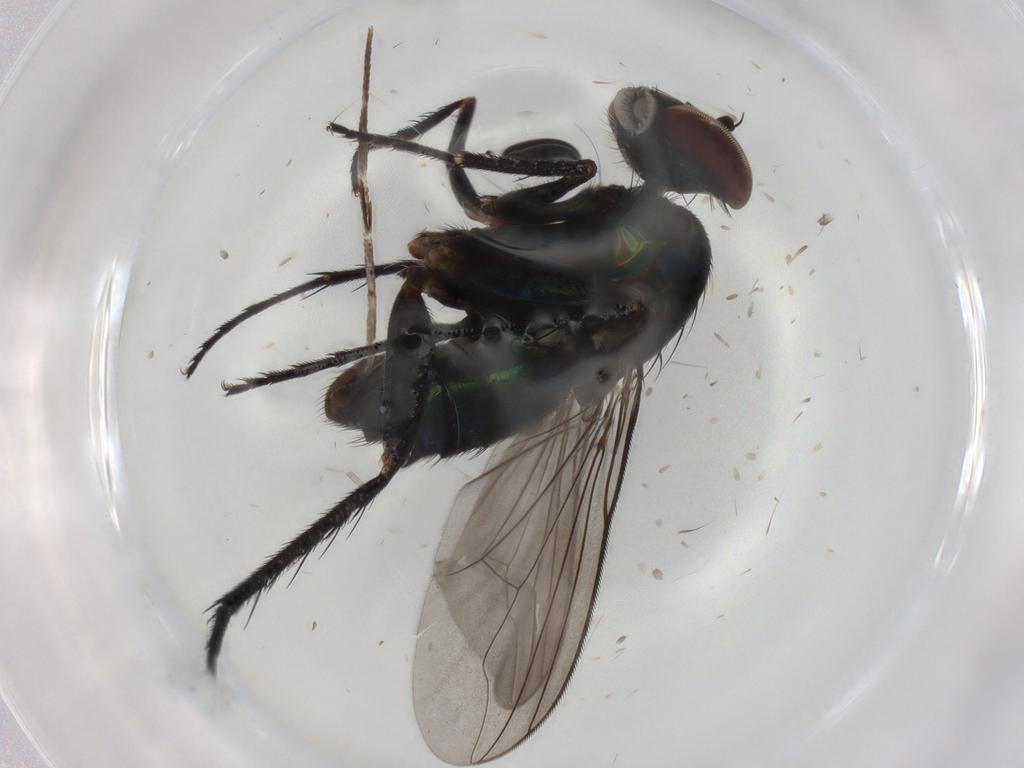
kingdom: Animalia
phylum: Arthropoda
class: Insecta
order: Diptera
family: Dolichopodidae
